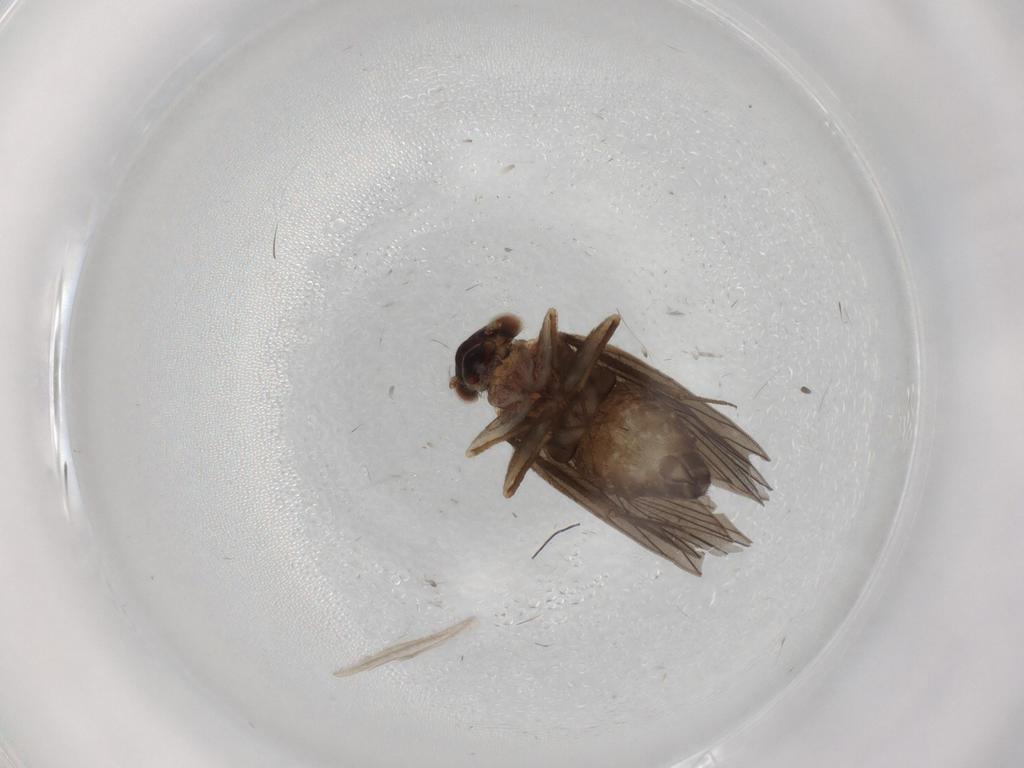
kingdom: Animalia
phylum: Arthropoda
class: Insecta
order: Psocodea
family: Lepidopsocidae
